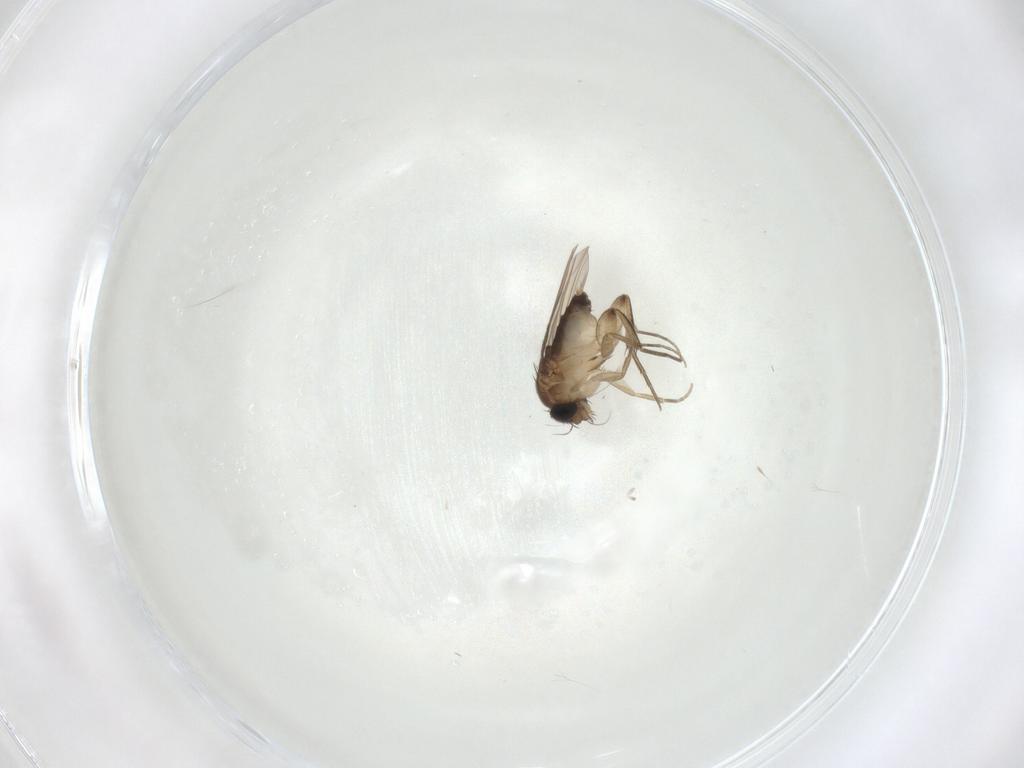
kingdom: Animalia
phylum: Arthropoda
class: Insecta
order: Diptera
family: Phoridae
